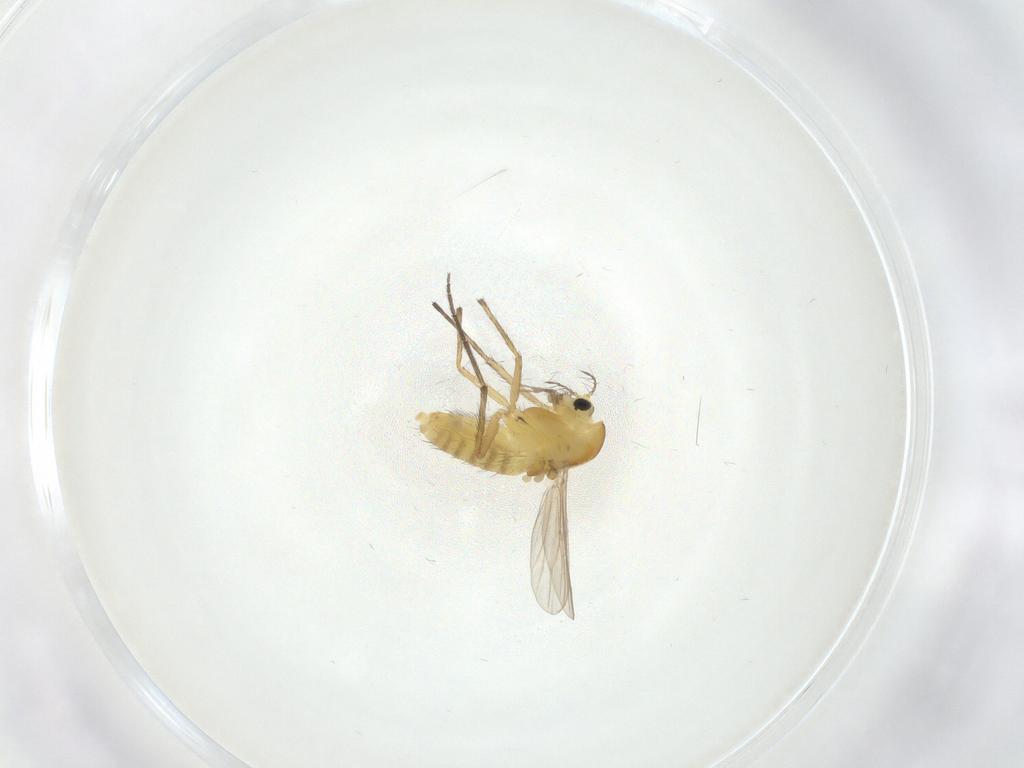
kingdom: Animalia
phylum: Arthropoda
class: Insecta
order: Diptera
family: Chironomidae
